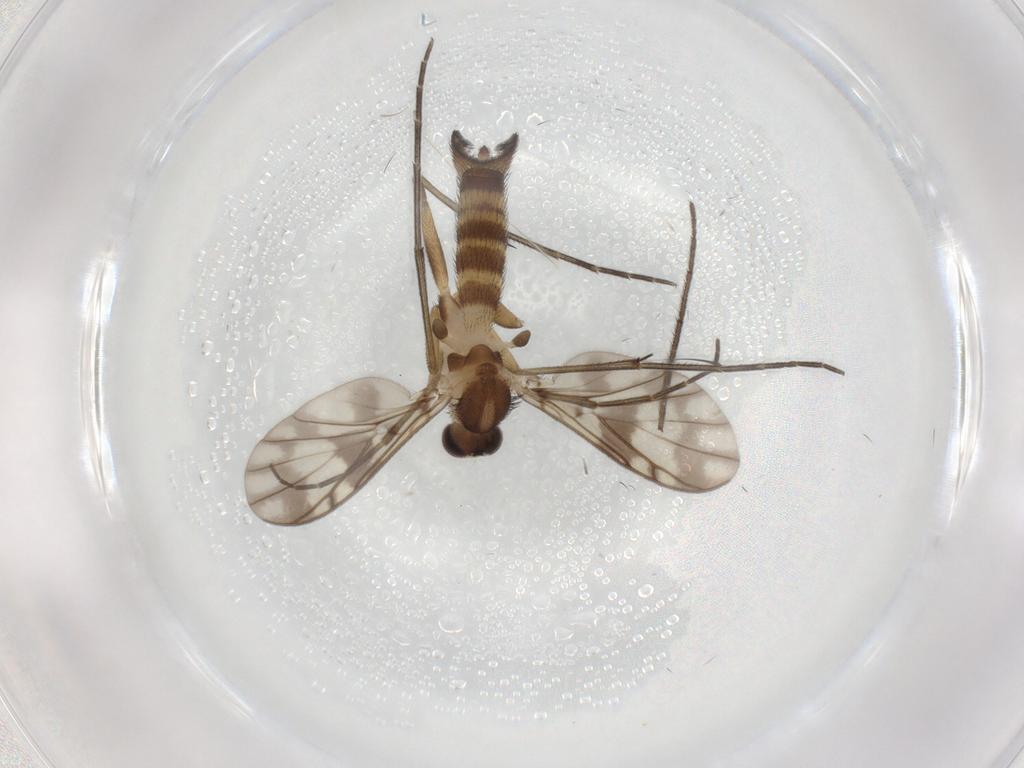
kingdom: Animalia
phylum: Arthropoda
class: Insecta
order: Diptera
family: Keroplatidae
